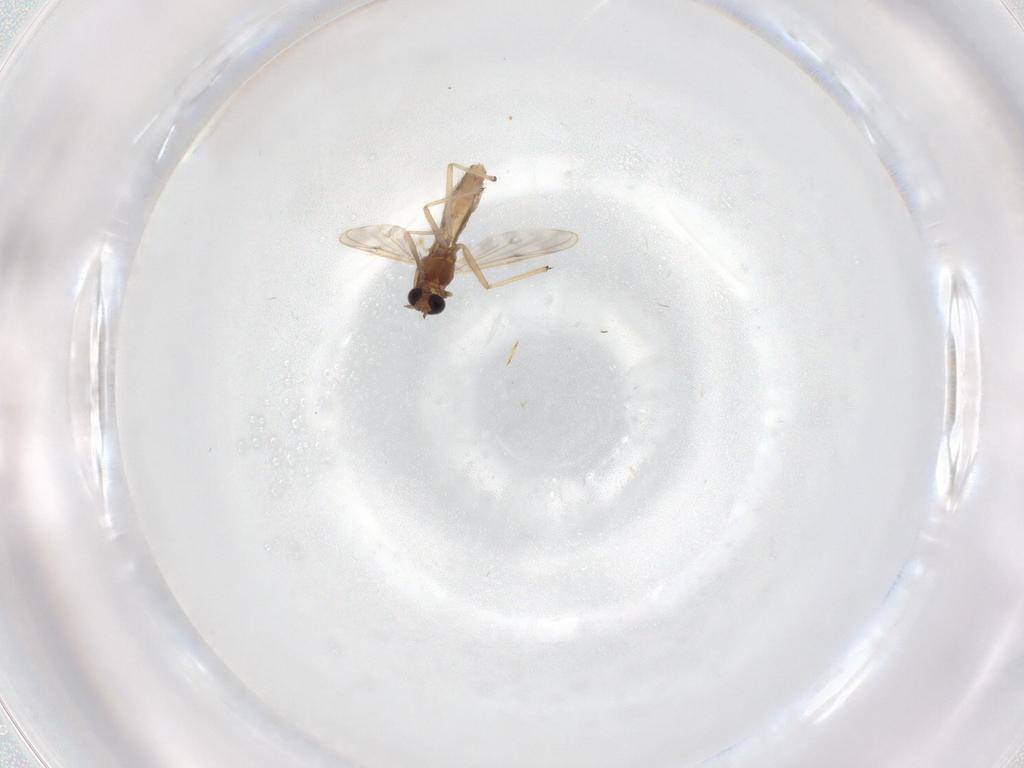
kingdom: Animalia
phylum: Arthropoda
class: Insecta
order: Diptera
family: Chironomidae
